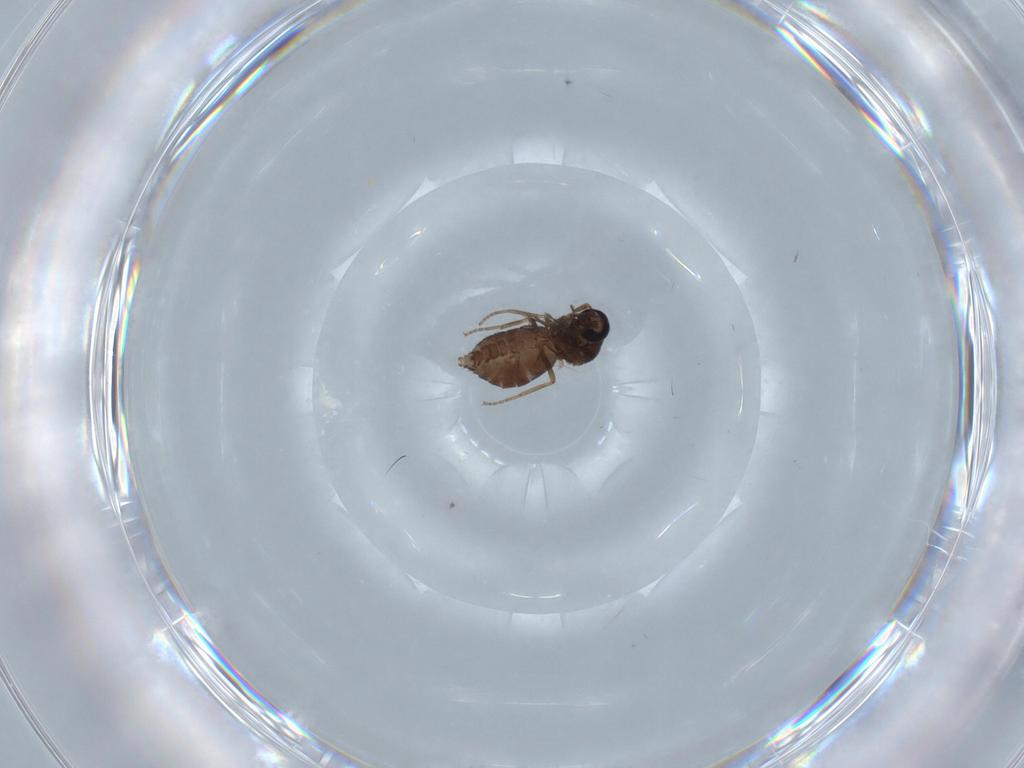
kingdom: Animalia
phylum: Arthropoda
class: Insecta
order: Diptera
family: Ceratopogonidae
